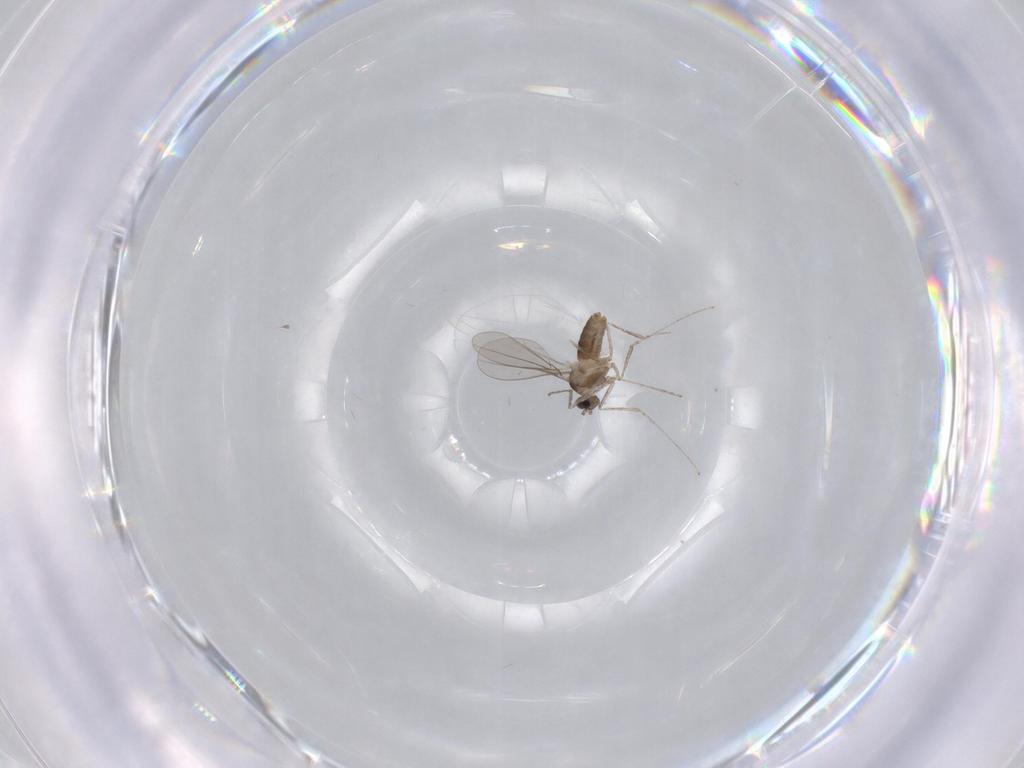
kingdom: Animalia
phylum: Arthropoda
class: Insecta
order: Diptera
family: Cecidomyiidae
